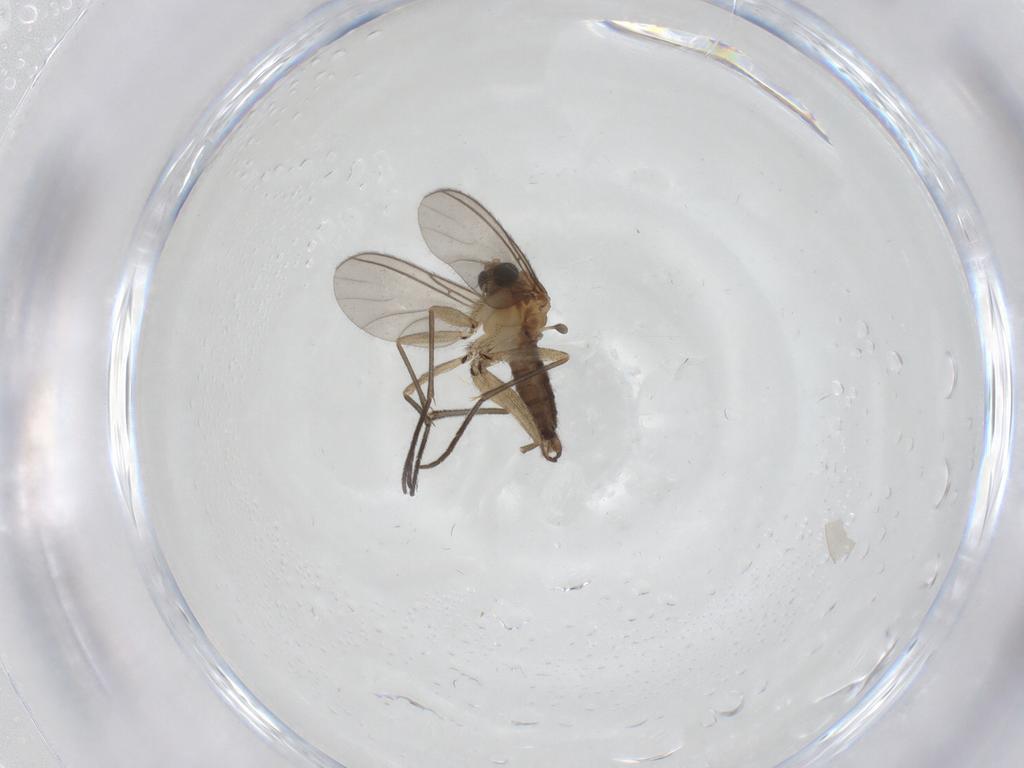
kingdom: Animalia
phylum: Arthropoda
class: Insecta
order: Diptera
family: Sciaridae
